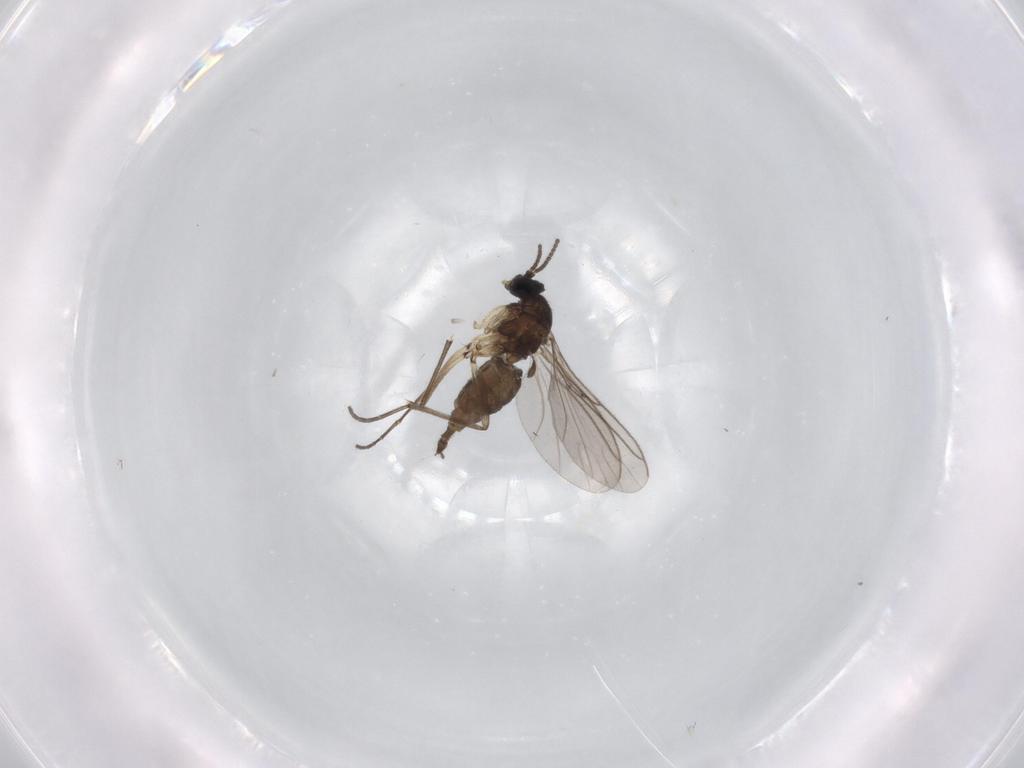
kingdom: Animalia
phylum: Arthropoda
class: Insecta
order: Diptera
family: Sciaridae
